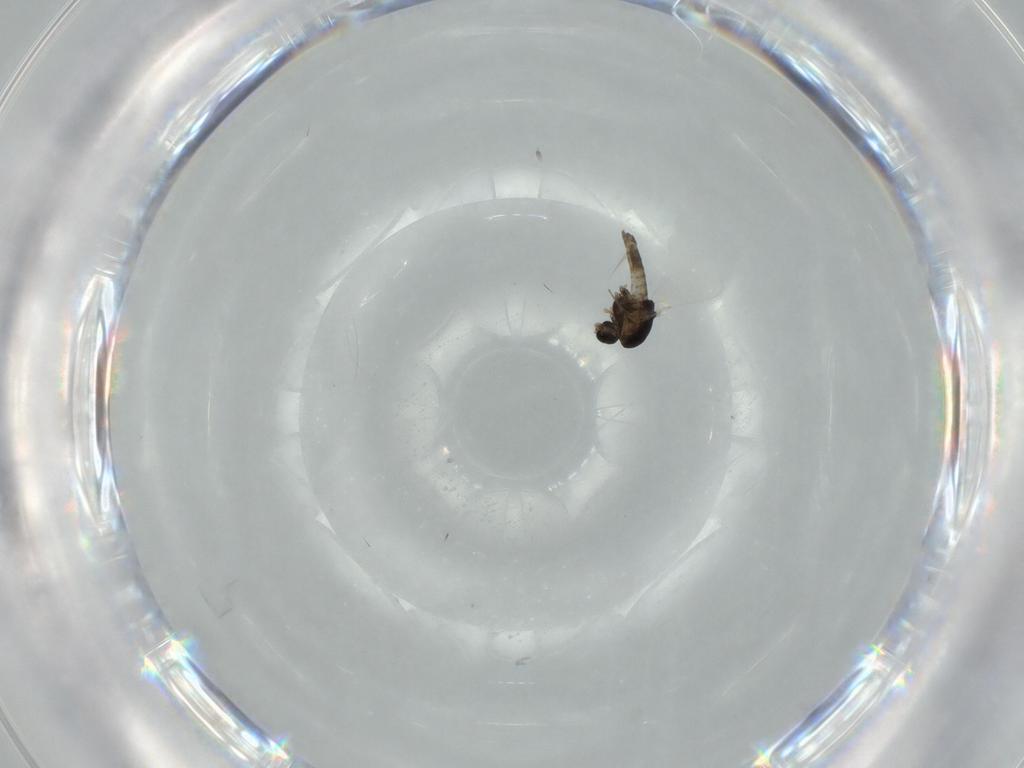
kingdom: Animalia
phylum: Arthropoda
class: Insecta
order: Diptera
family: Chironomidae
